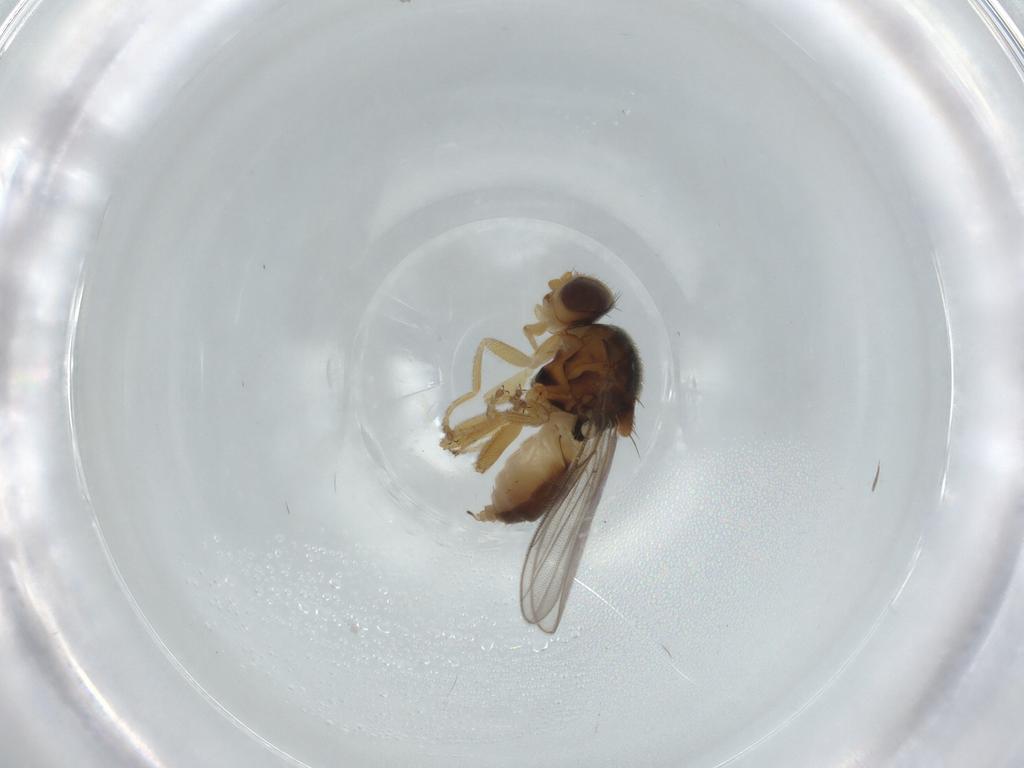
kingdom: Animalia
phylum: Arthropoda
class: Insecta
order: Diptera
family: Chloropidae
